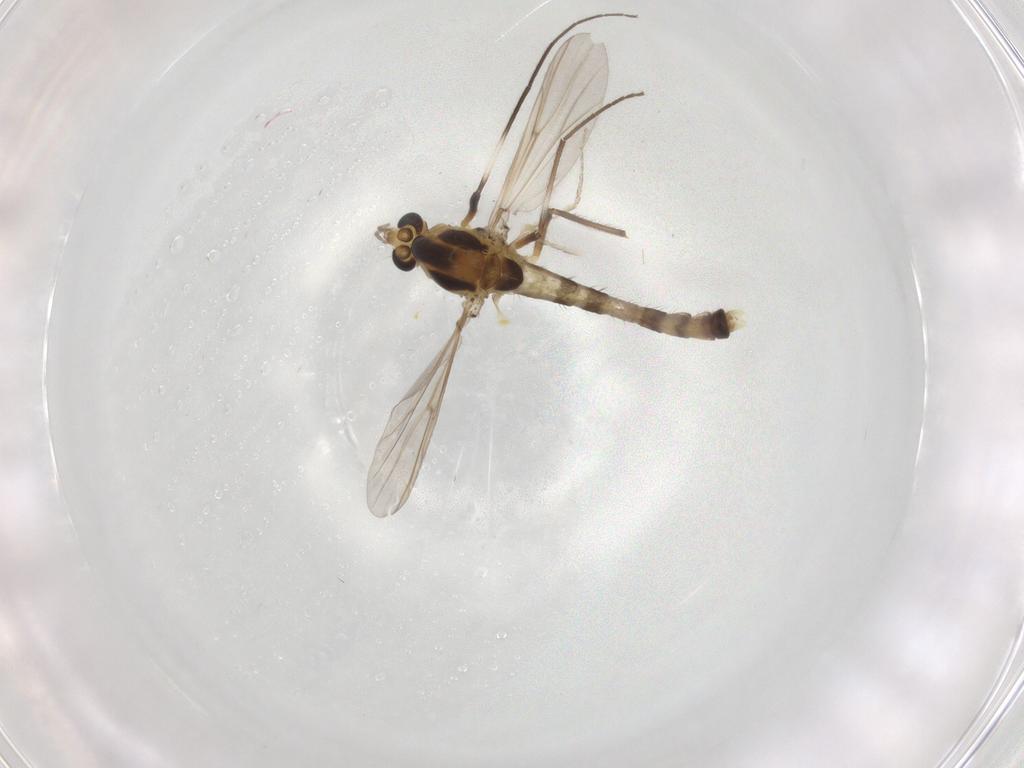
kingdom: Animalia
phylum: Arthropoda
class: Insecta
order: Diptera
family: Chironomidae
